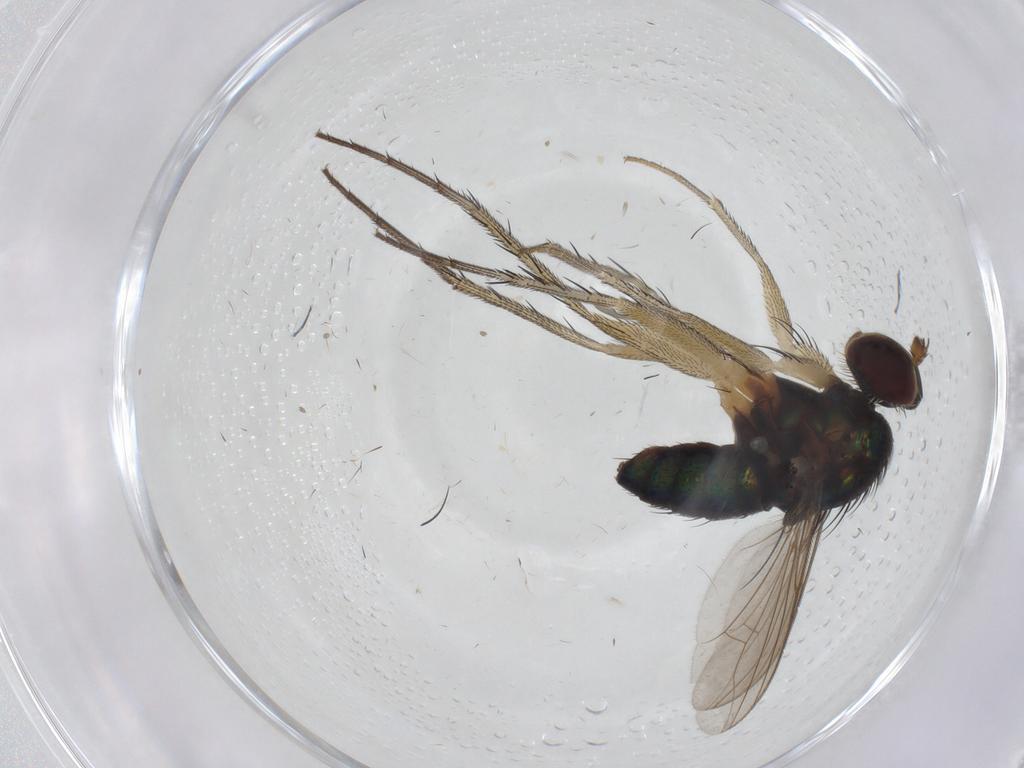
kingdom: Animalia
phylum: Arthropoda
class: Insecta
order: Diptera
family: Dolichopodidae
